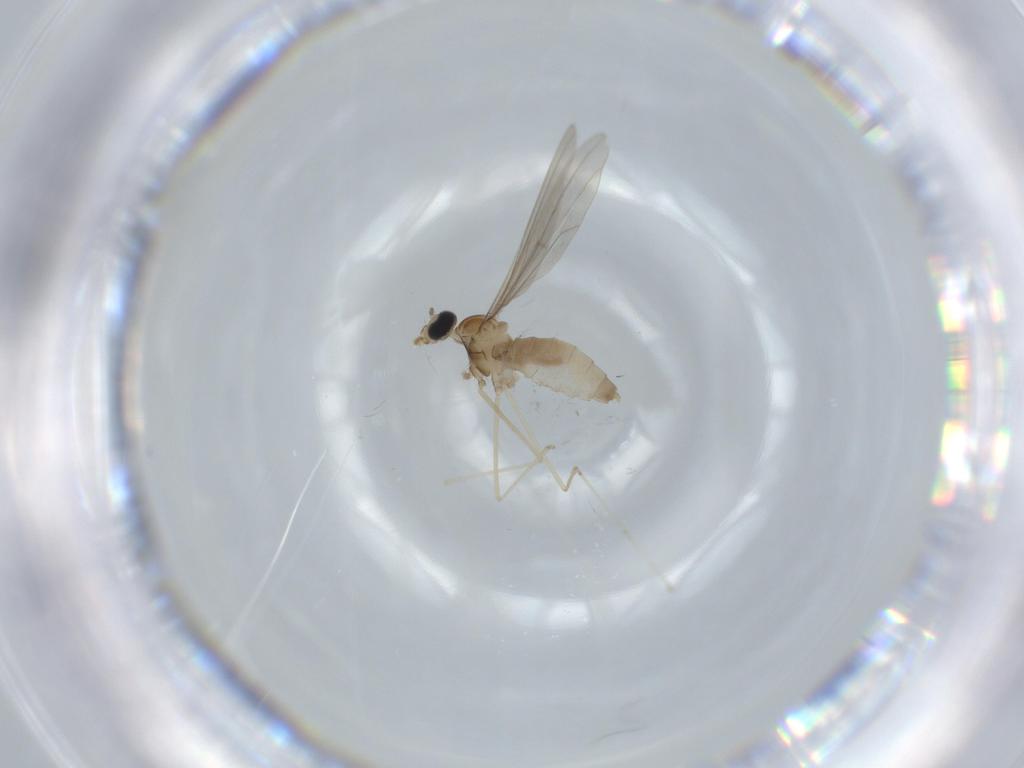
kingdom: Animalia
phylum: Arthropoda
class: Insecta
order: Diptera
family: Cecidomyiidae
